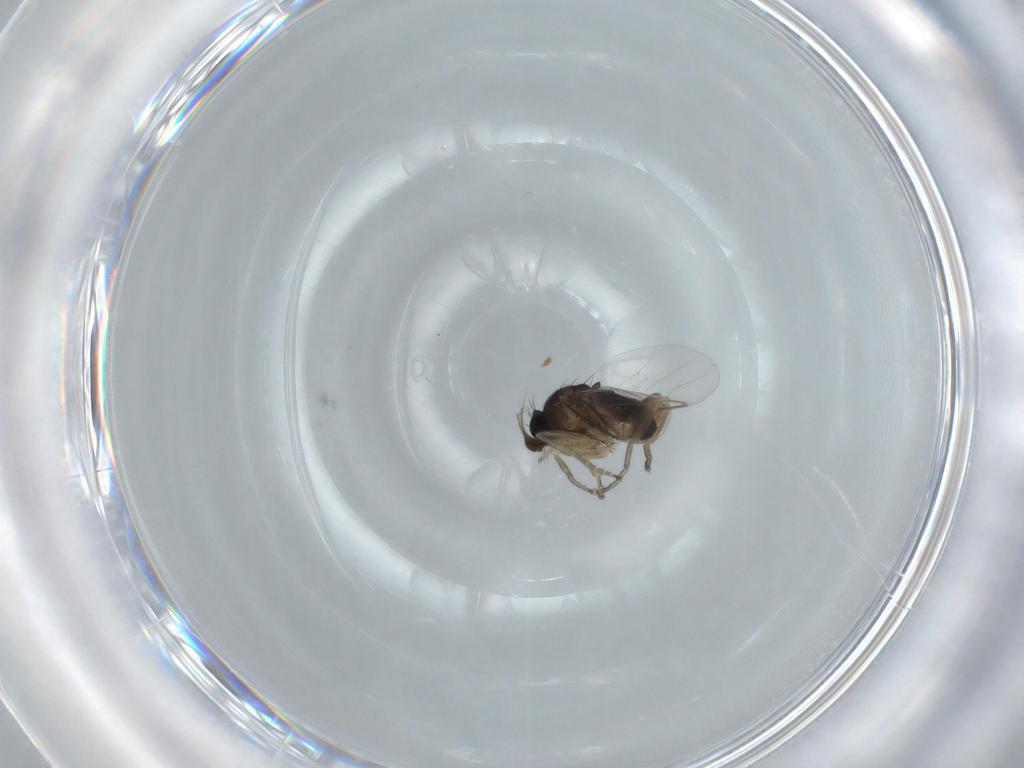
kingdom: Animalia
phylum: Arthropoda
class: Insecta
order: Diptera
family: Phoridae
